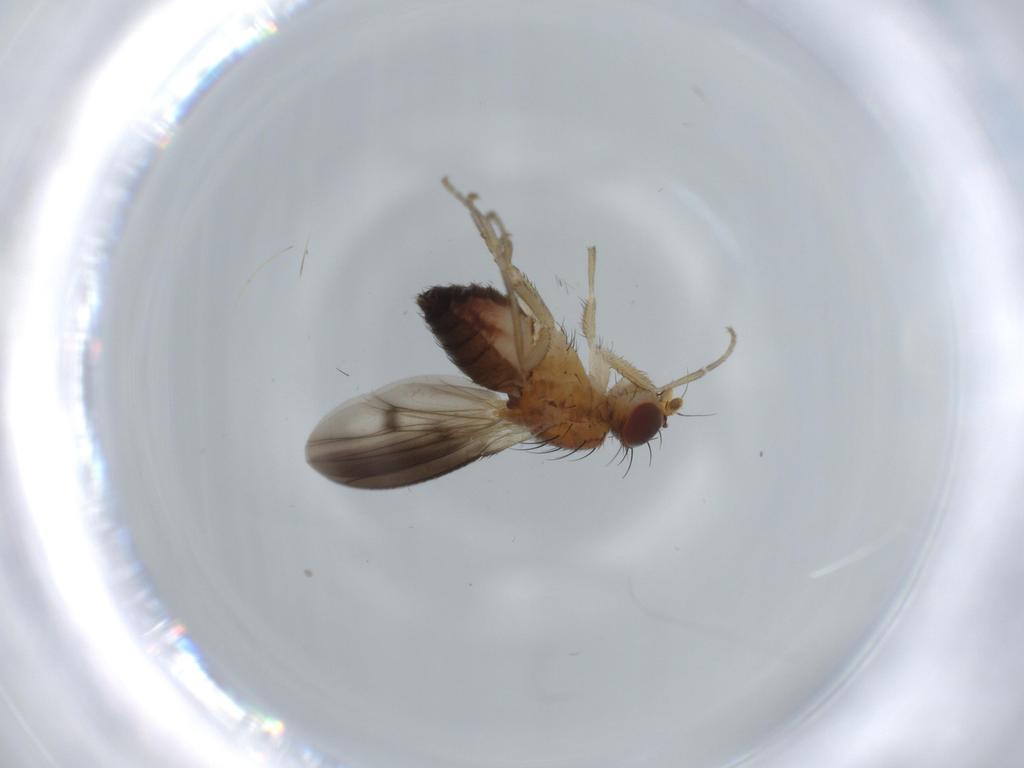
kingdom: Animalia
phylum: Arthropoda
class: Insecta
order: Diptera
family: Heleomyzidae
